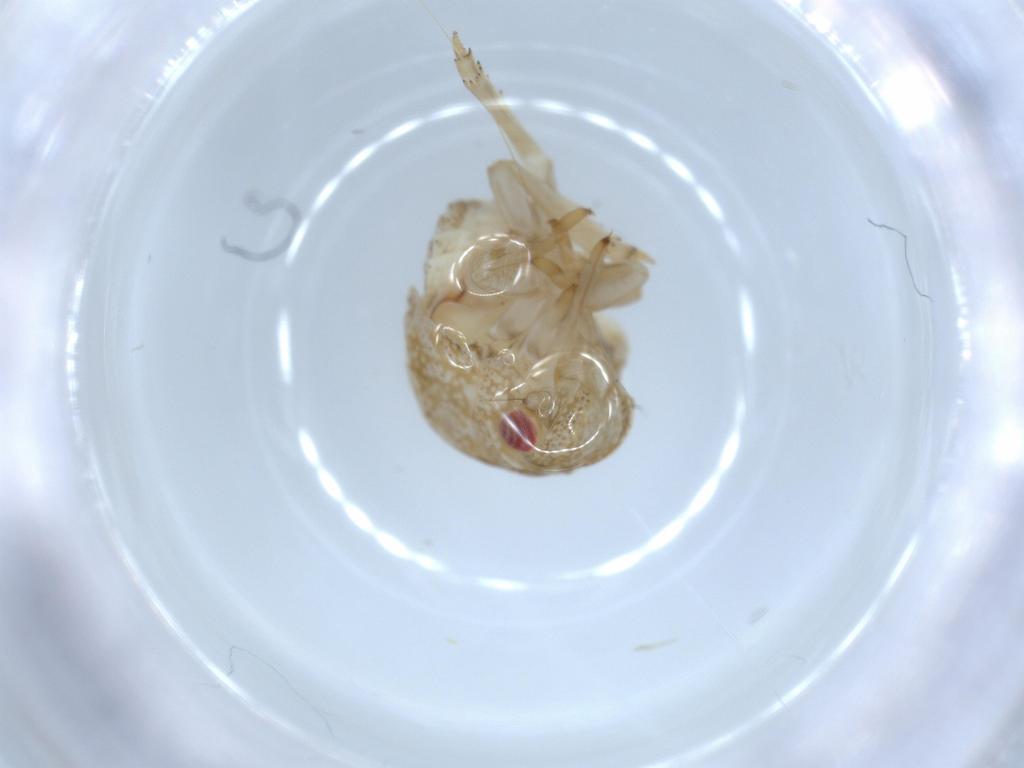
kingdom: Animalia
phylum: Arthropoda
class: Insecta
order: Hemiptera
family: Acanaloniidae
